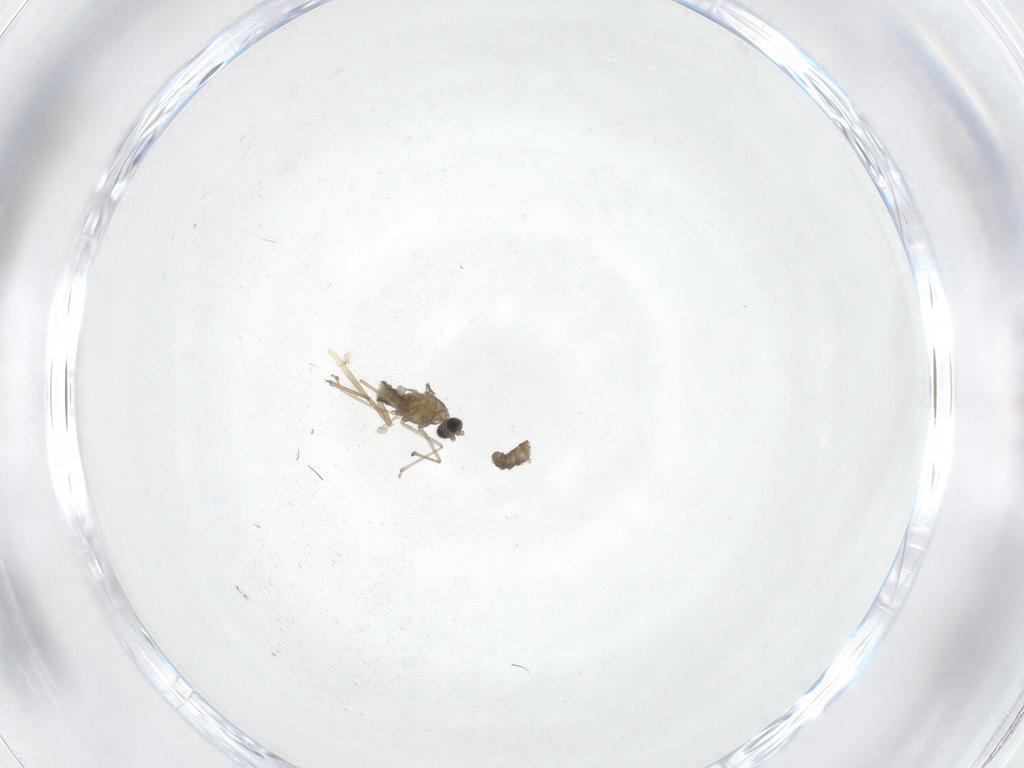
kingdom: Animalia
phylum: Arthropoda
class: Insecta
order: Diptera
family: Chironomidae
